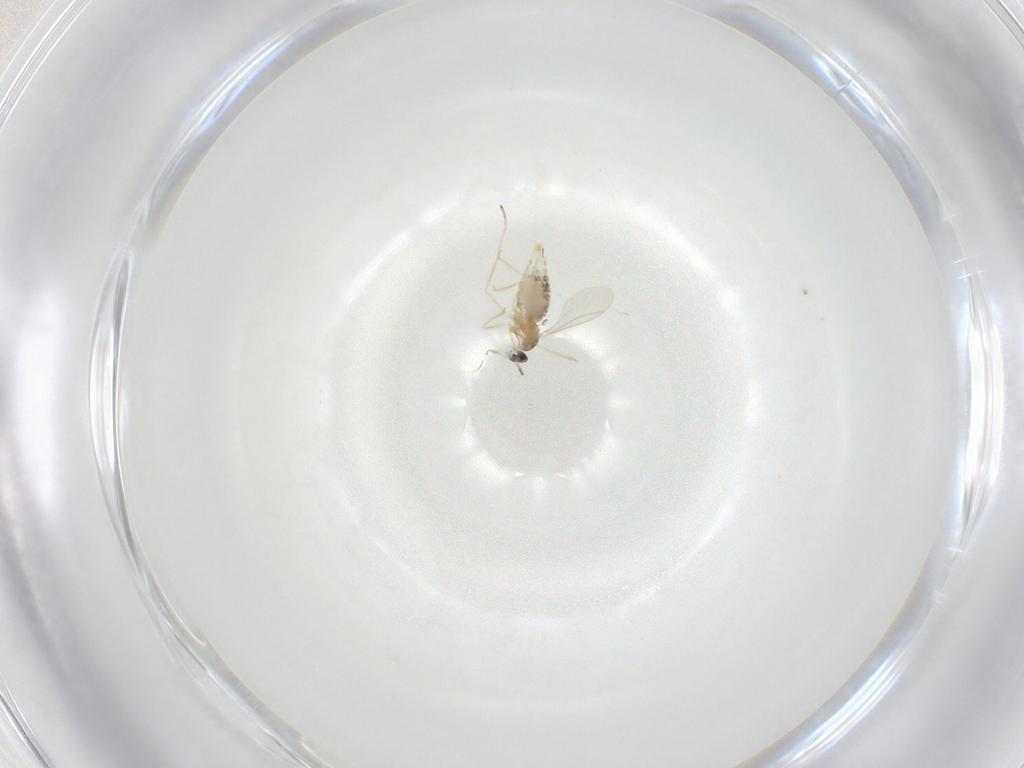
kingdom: Animalia
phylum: Arthropoda
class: Insecta
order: Diptera
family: Cecidomyiidae
